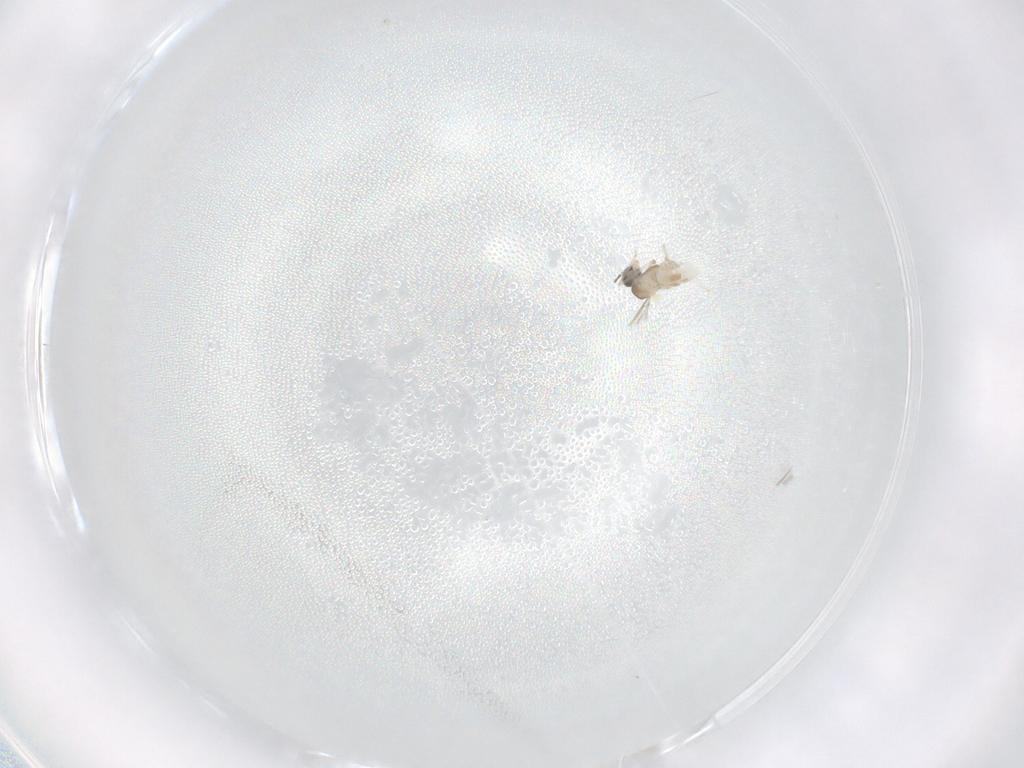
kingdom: Animalia
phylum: Arthropoda
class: Insecta
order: Diptera
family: Cecidomyiidae
